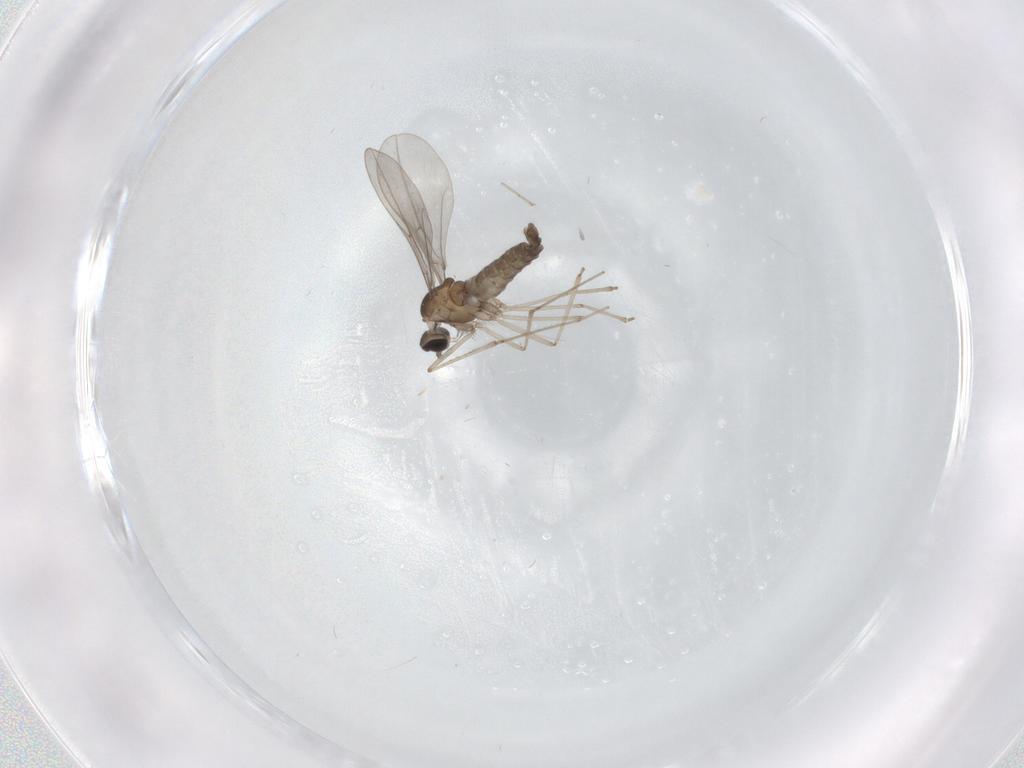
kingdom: Animalia
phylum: Arthropoda
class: Insecta
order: Diptera
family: Cecidomyiidae
